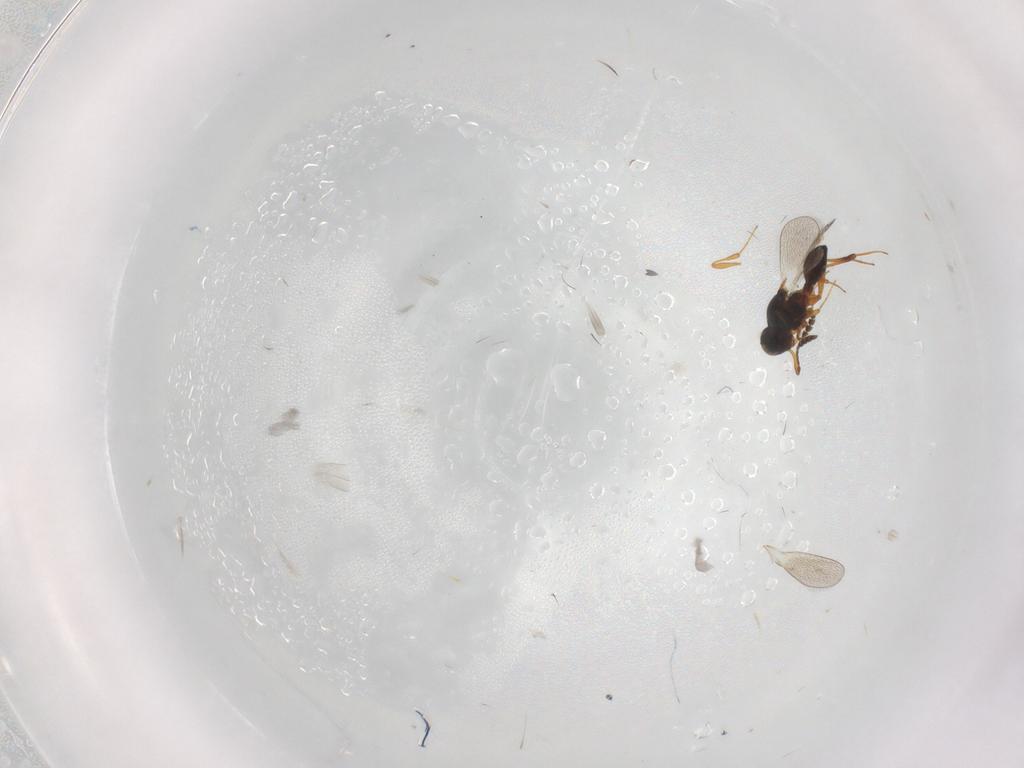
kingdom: Animalia
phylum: Arthropoda
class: Insecta
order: Hymenoptera
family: Platygastridae
